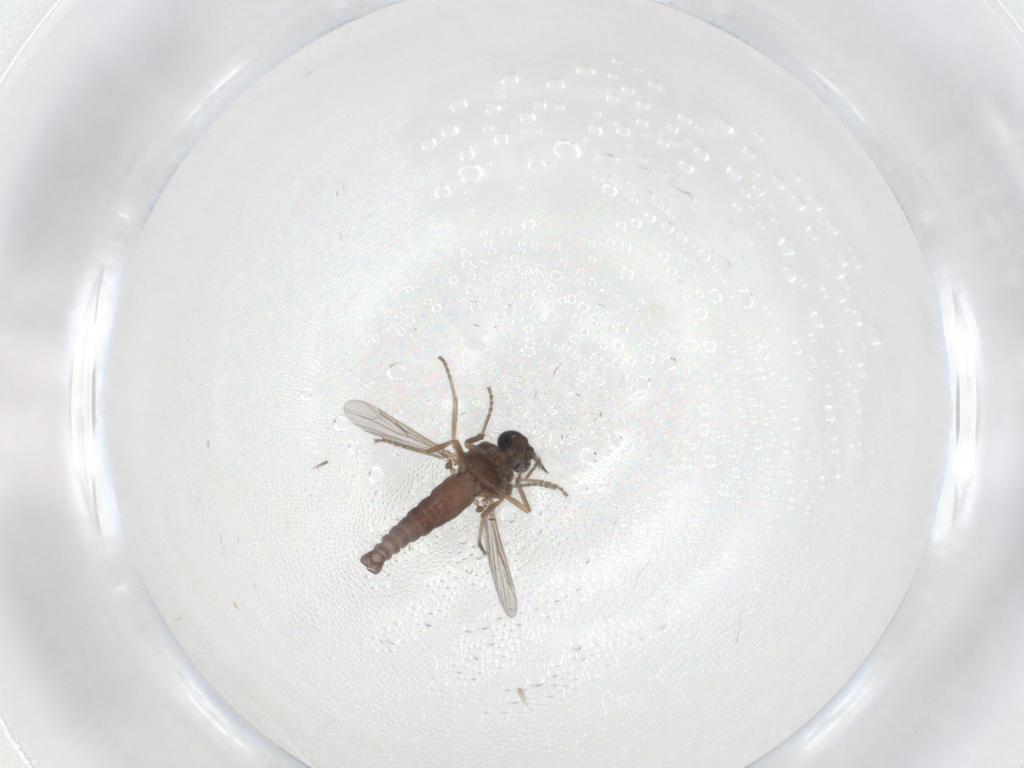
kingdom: Animalia
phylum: Arthropoda
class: Insecta
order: Diptera
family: Ceratopogonidae
